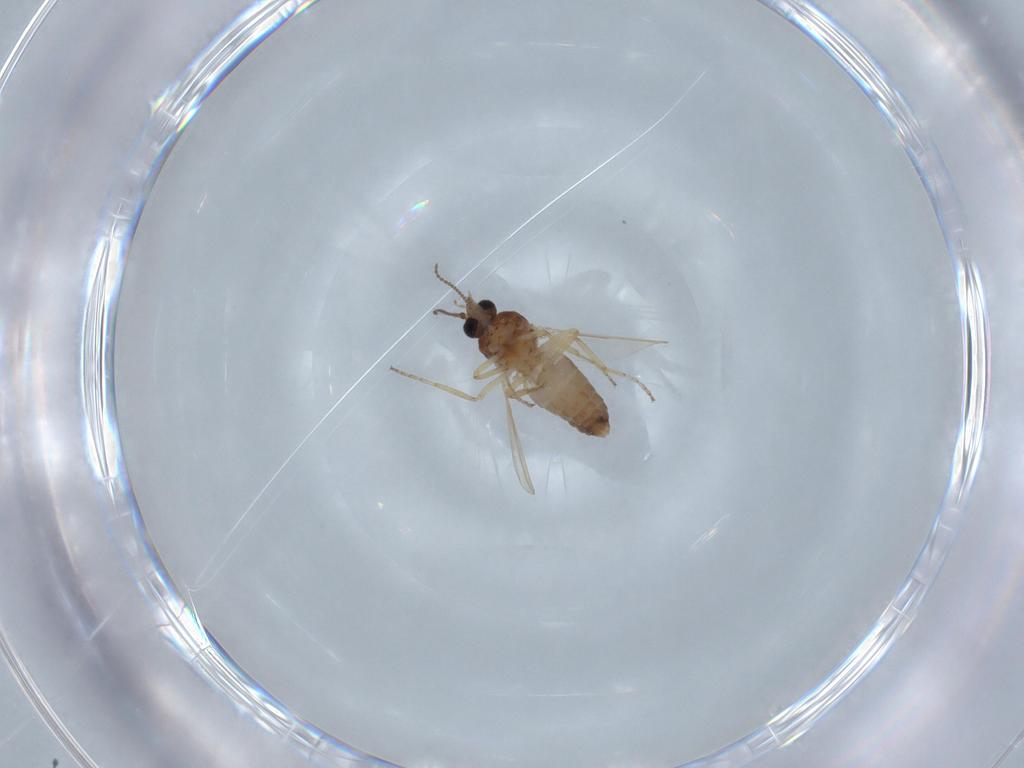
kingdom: Animalia
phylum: Arthropoda
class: Insecta
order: Diptera
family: Ceratopogonidae
